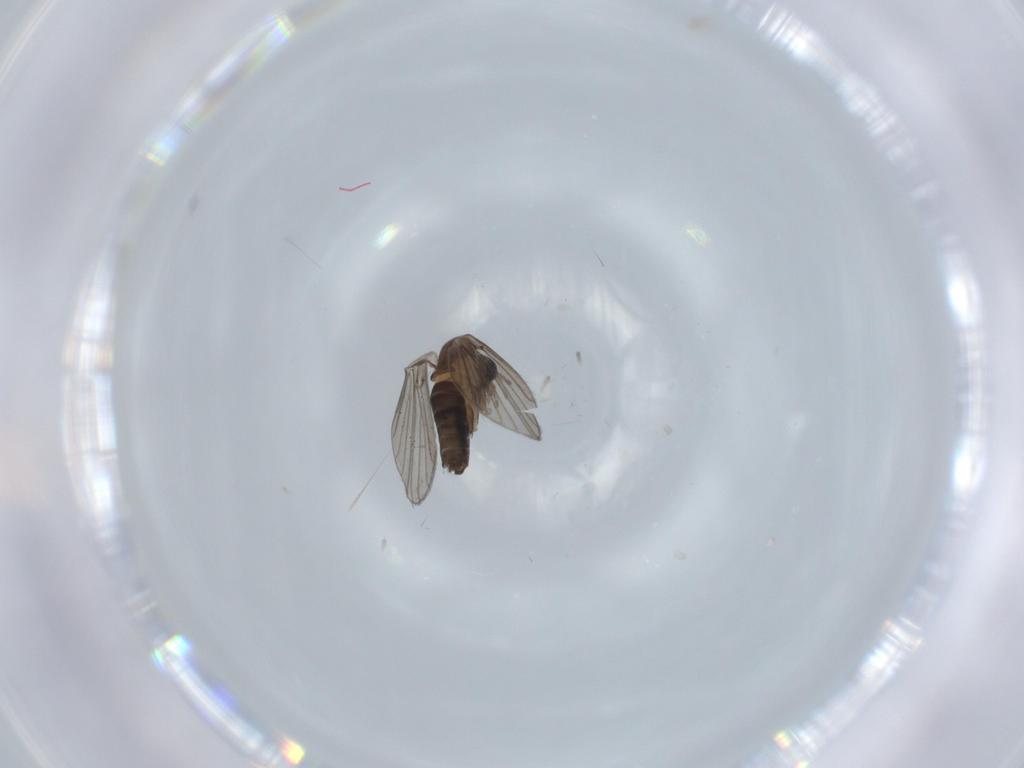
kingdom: Animalia
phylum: Arthropoda
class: Insecta
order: Diptera
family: Psychodidae
